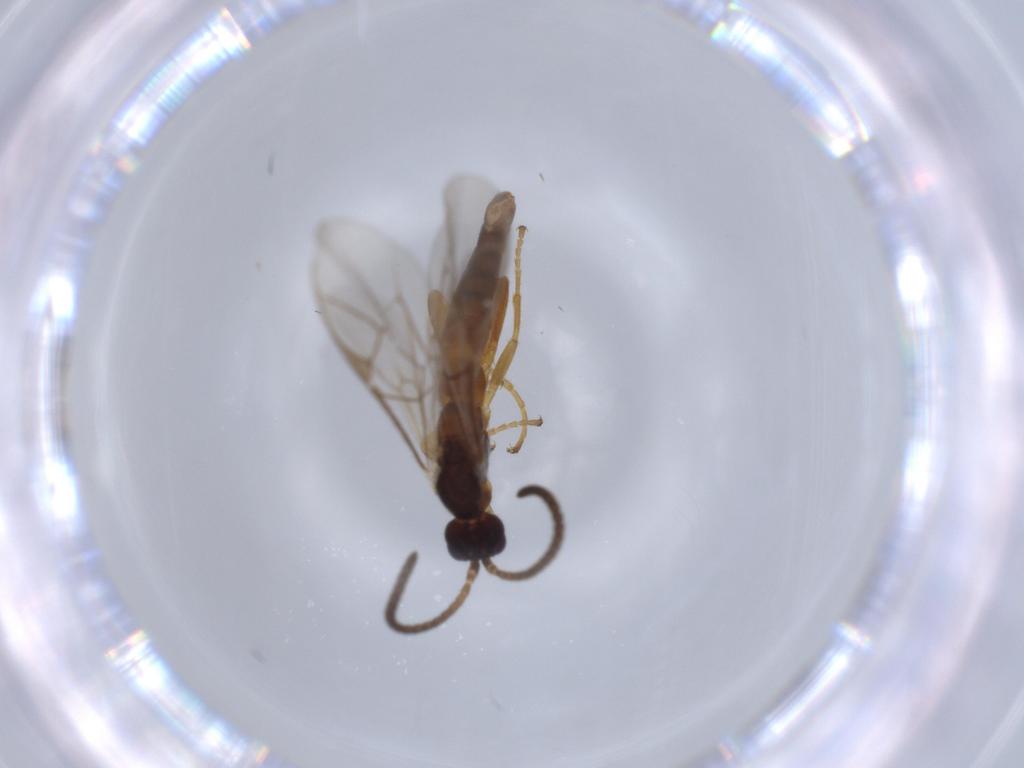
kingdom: Animalia
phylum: Arthropoda
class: Insecta
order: Hymenoptera
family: Ichneumonidae
